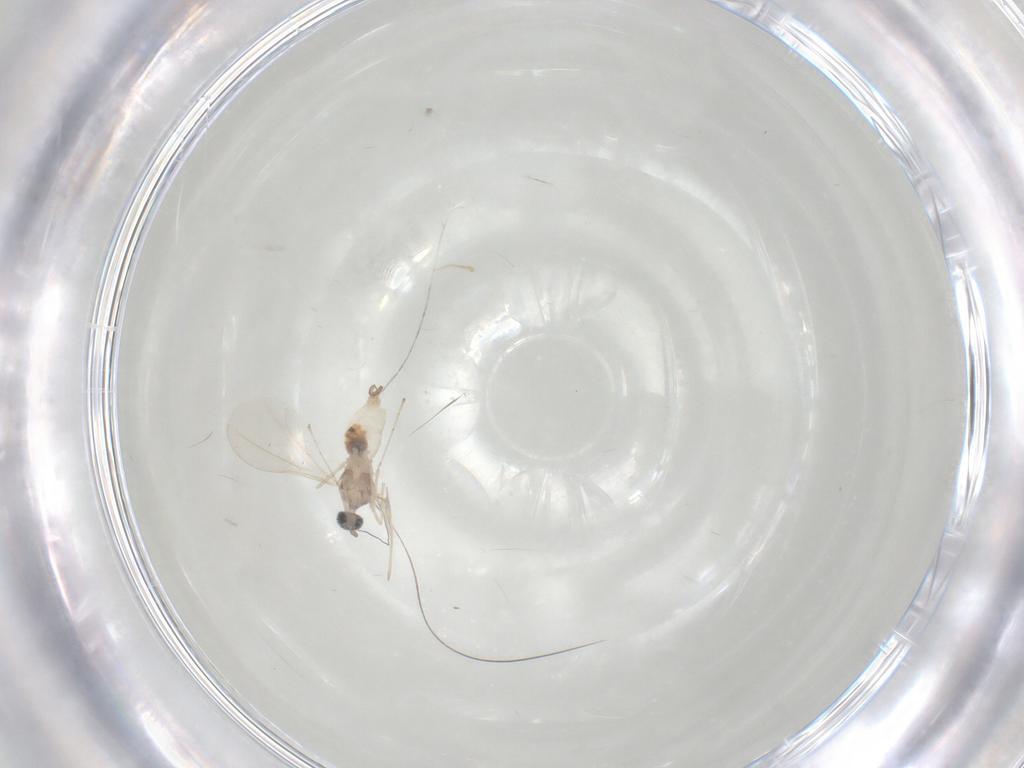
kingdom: Animalia
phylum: Arthropoda
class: Insecta
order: Diptera
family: Ceratopogonidae
